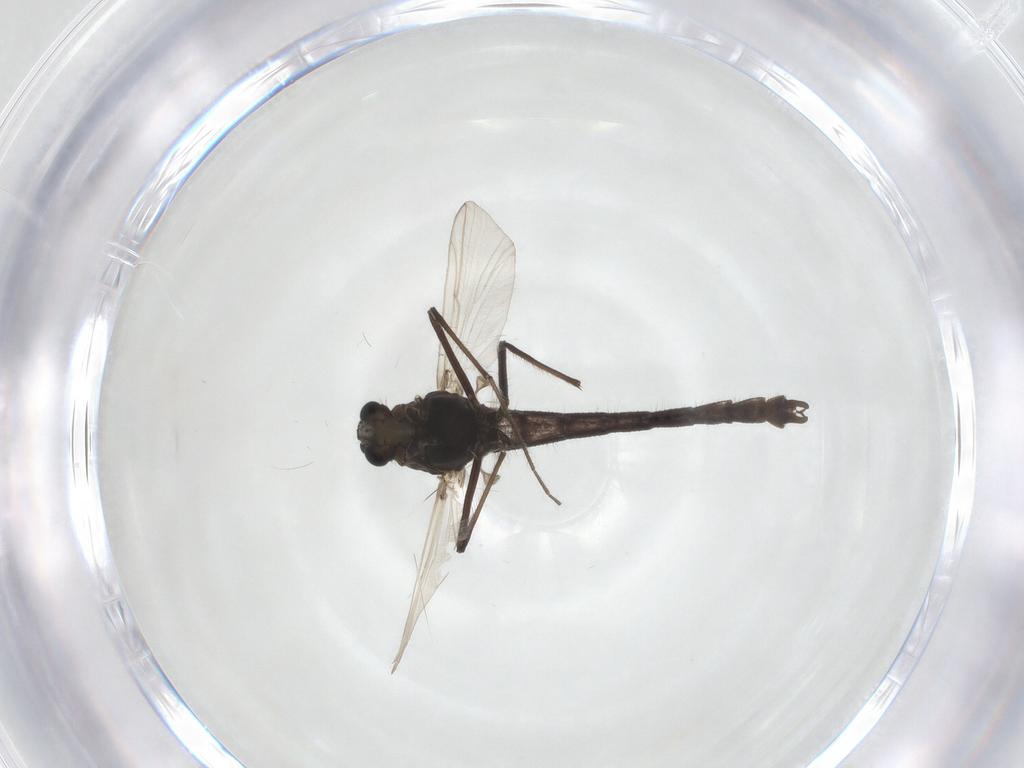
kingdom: Animalia
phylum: Arthropoda
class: Insecta
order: Diptera
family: Chironomidae
